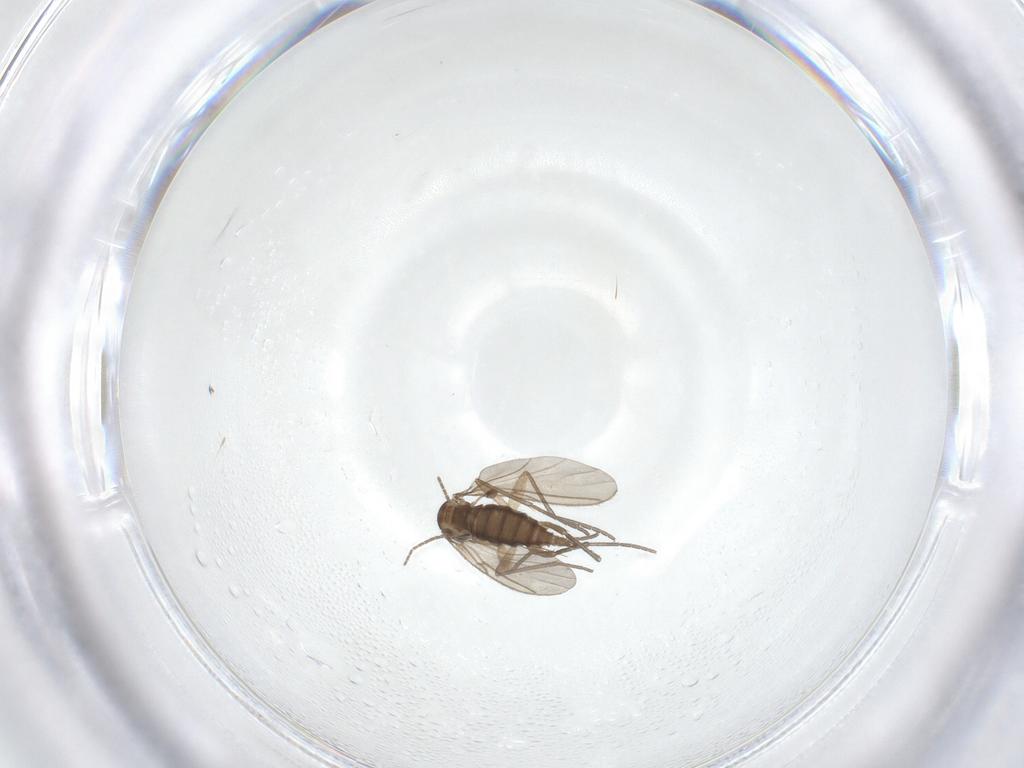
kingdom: Animalia
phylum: Arthropoda
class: Insecta
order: Diptera
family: Sciaridae
